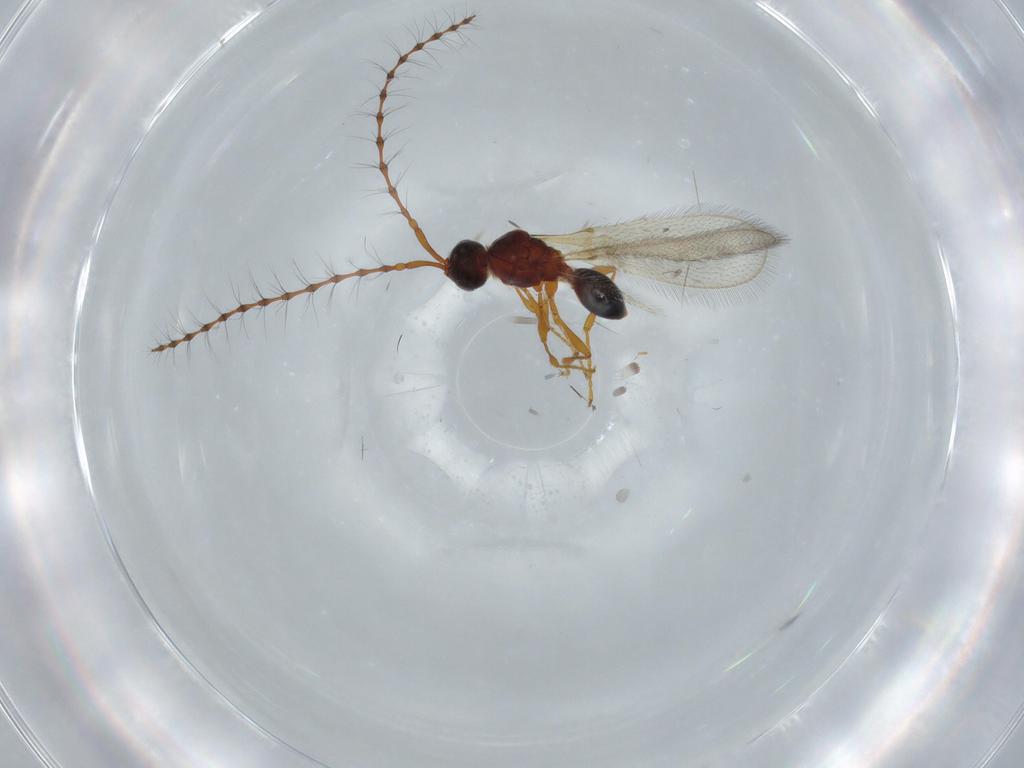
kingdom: Animalia
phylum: Arthropoda
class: Insecta
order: Hymenoptera
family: Diapriidae
